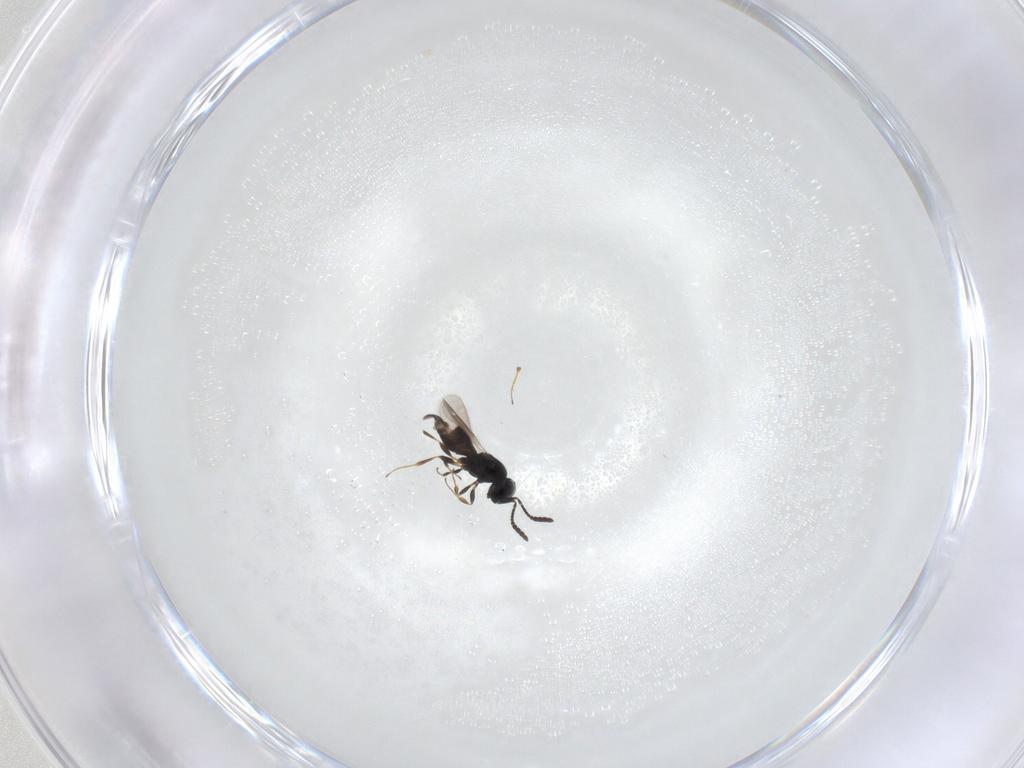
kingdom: Animalia
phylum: Arthropoda
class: Insecta
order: Hymenoptera
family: Scelionidae
